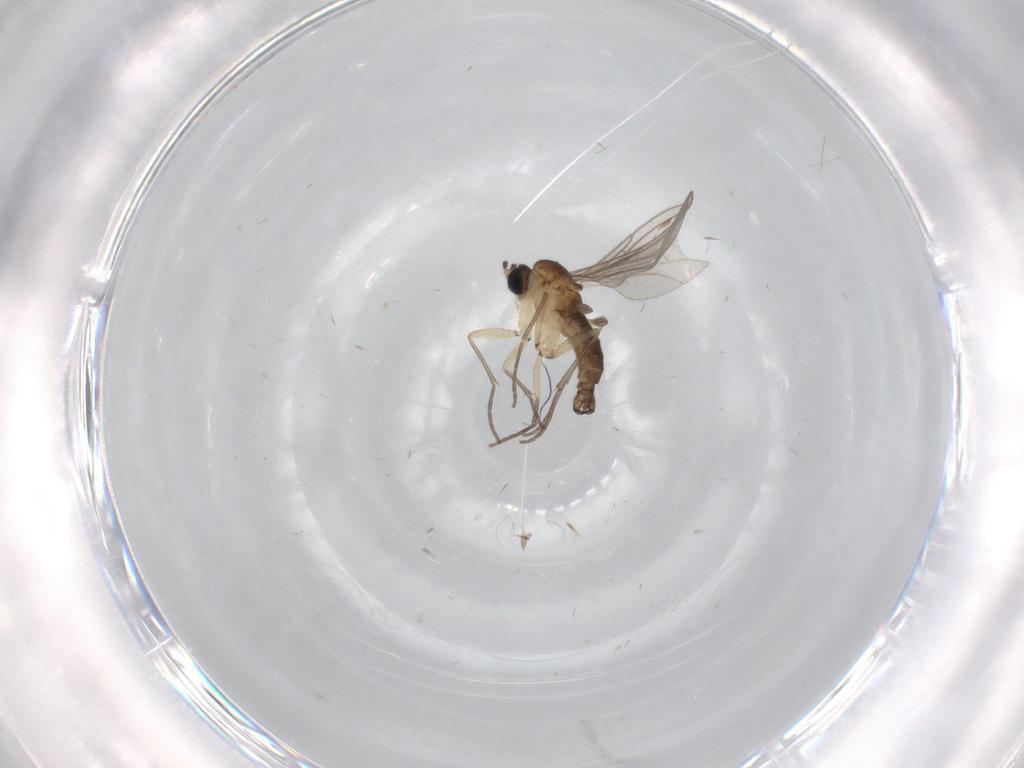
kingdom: Animalia
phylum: Arthropoda
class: Insecta
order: Diptera
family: Sciaridae
